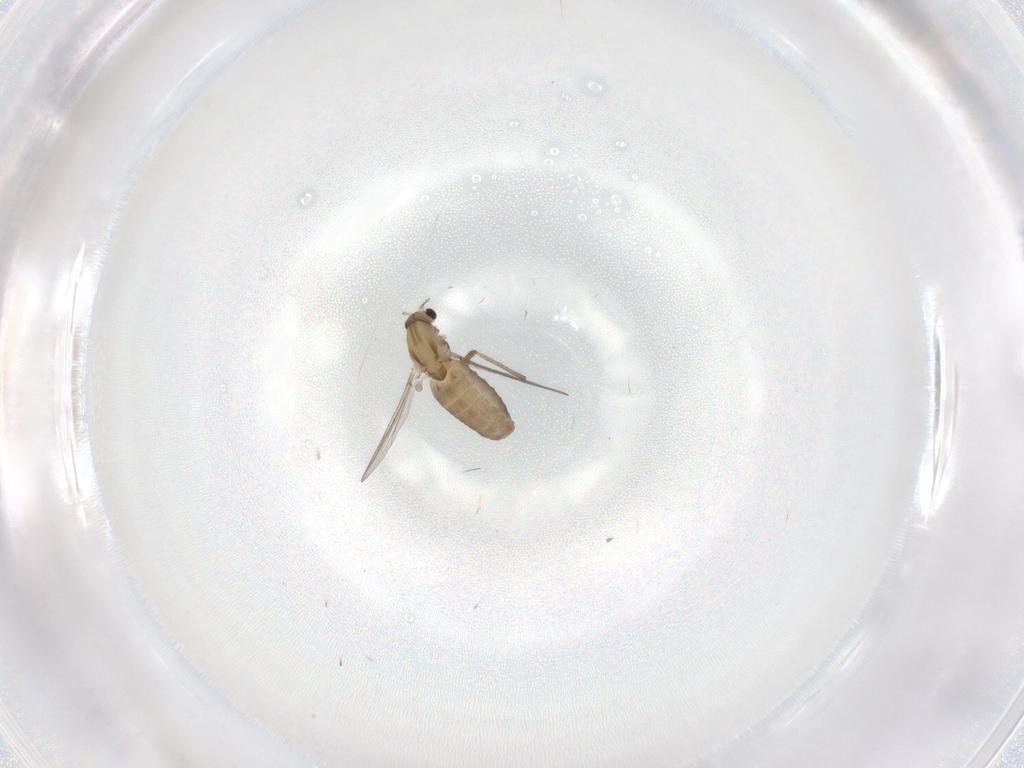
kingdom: Animalia
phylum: Arthropoda
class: Insecta
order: Diptera
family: Chironomidae
